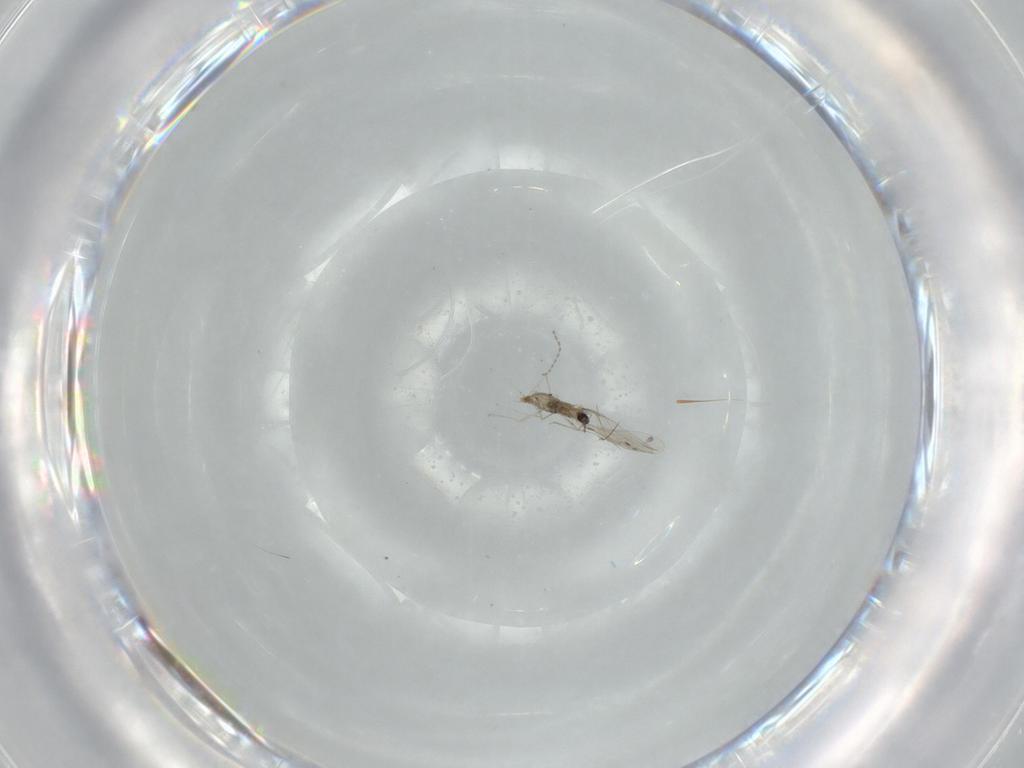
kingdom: Animalia
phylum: Arthropoda
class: Insecta
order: Diptera
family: Cecidomyiidae
